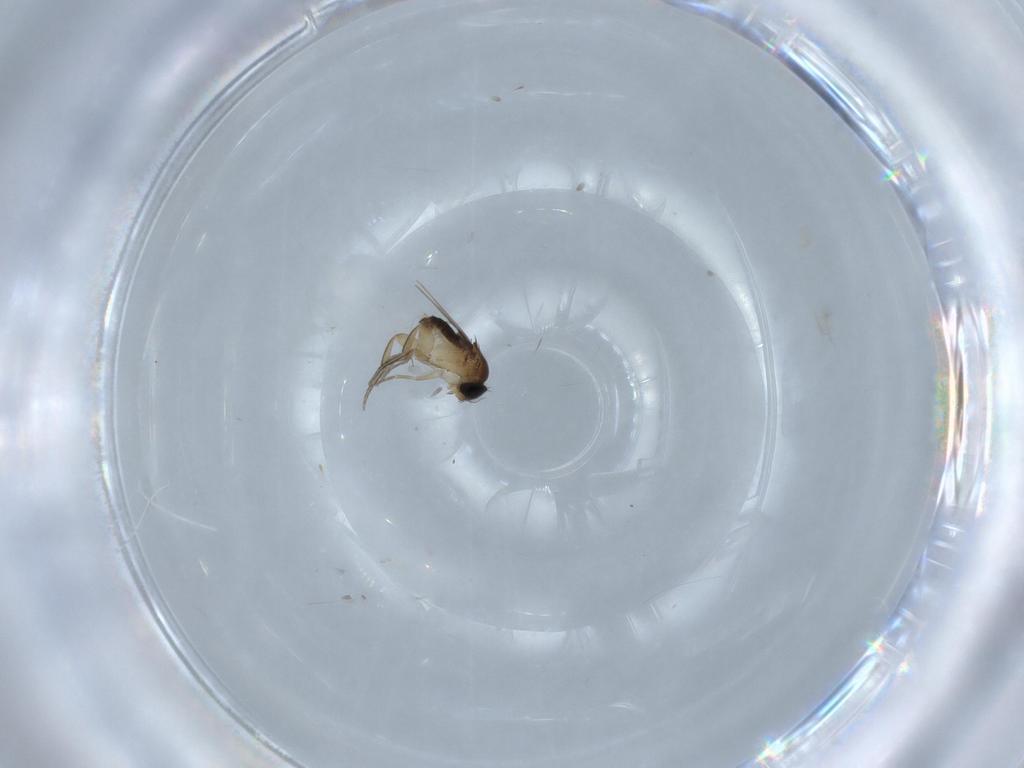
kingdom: Animalia
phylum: Arthropoda
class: Insecta
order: Diptera
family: Phoridae
